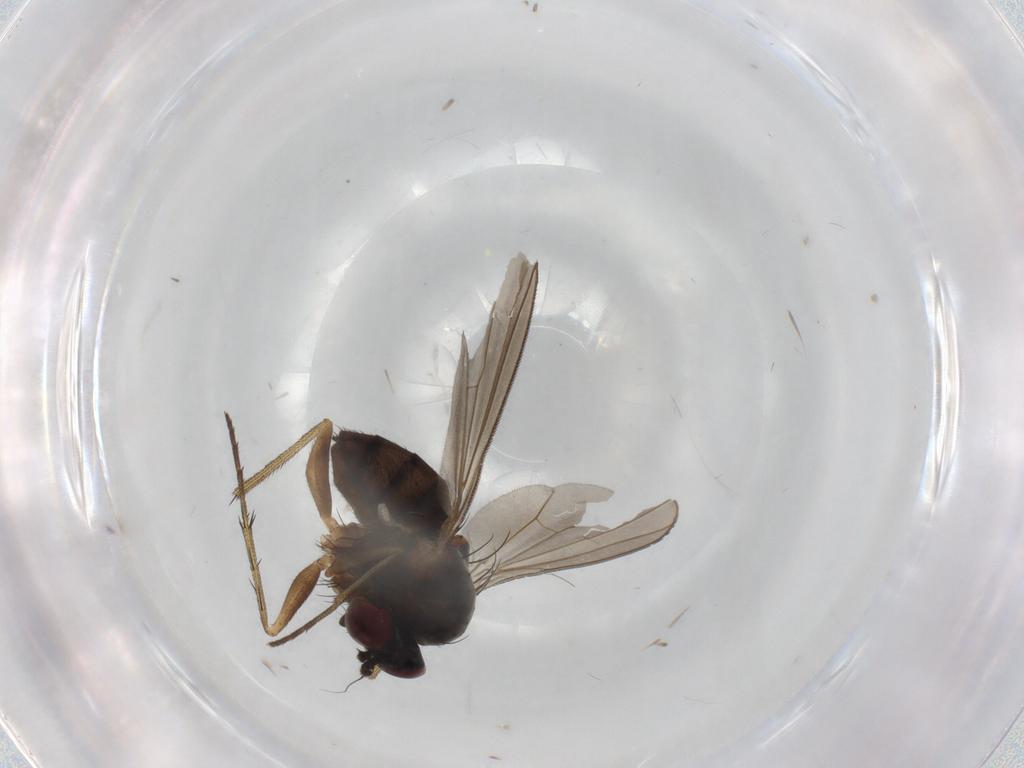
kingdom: Animalia
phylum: Arthropoda
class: Insecta
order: Diptera
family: Dolichopodidae
